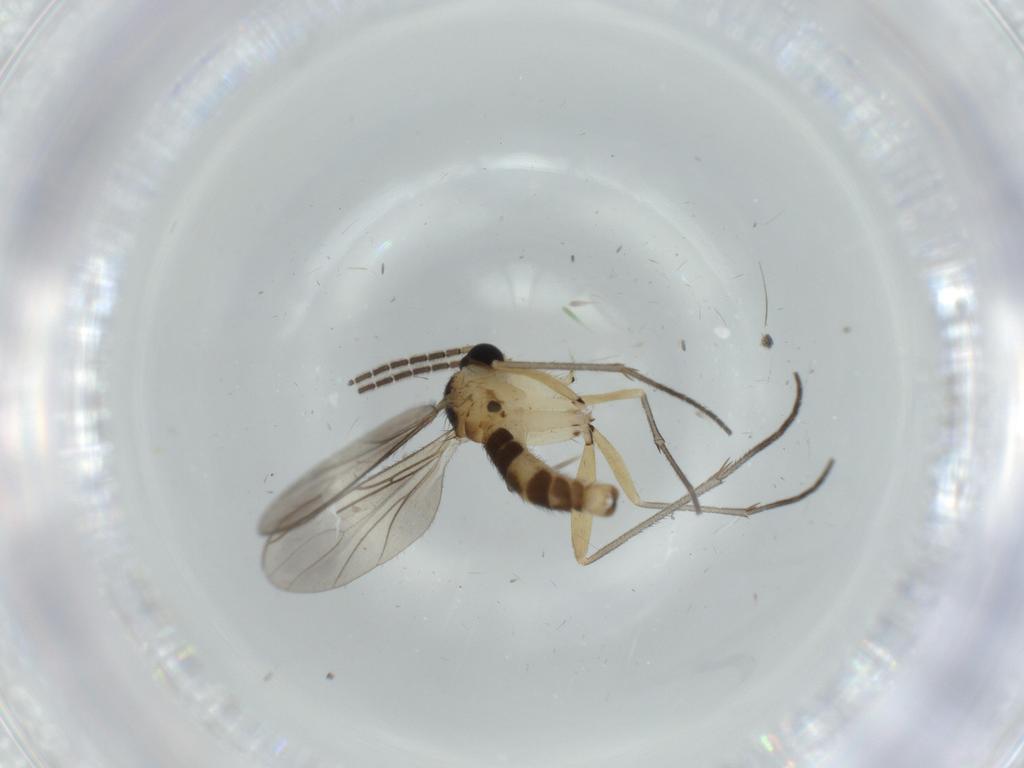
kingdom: Animalia
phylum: Arthropoda
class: Insecta
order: Diptera
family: Sciaridae
